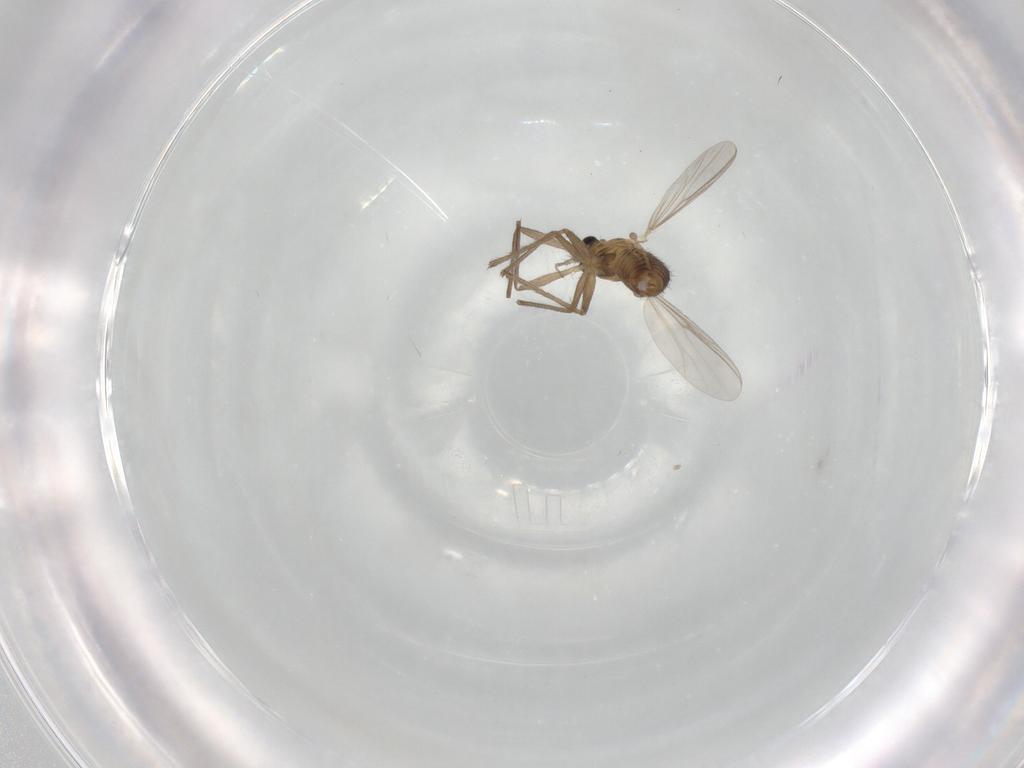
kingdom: Animalia
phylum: Arthropoda
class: Insecta
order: Diptera
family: Chironomidae
